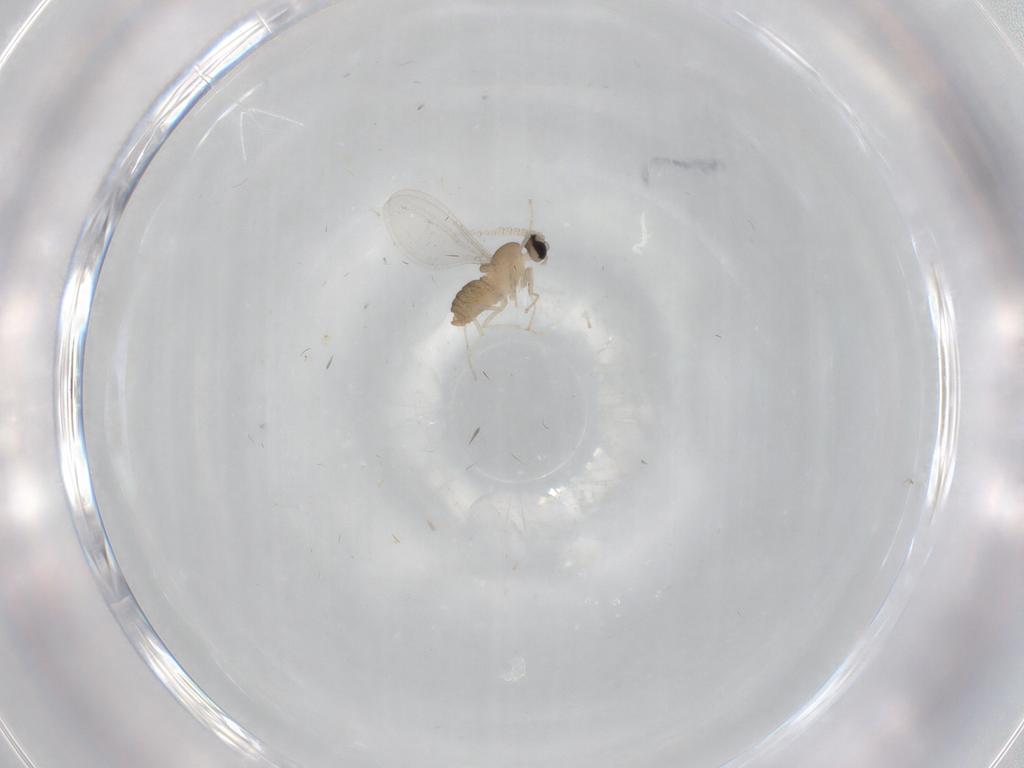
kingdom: Animalia
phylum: Arthropoda
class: Insecta
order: Diptera
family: Cecidomyiidae
